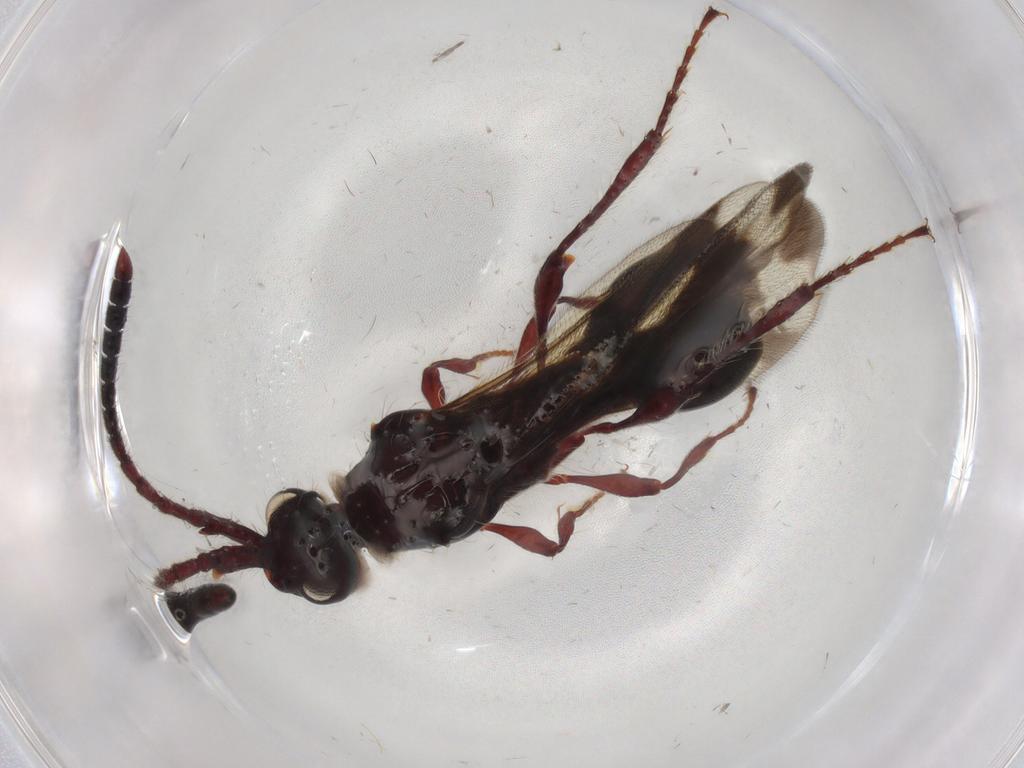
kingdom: Animalia
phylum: Arthropoda
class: Insecta
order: Hymenoptera
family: Diapriidae
